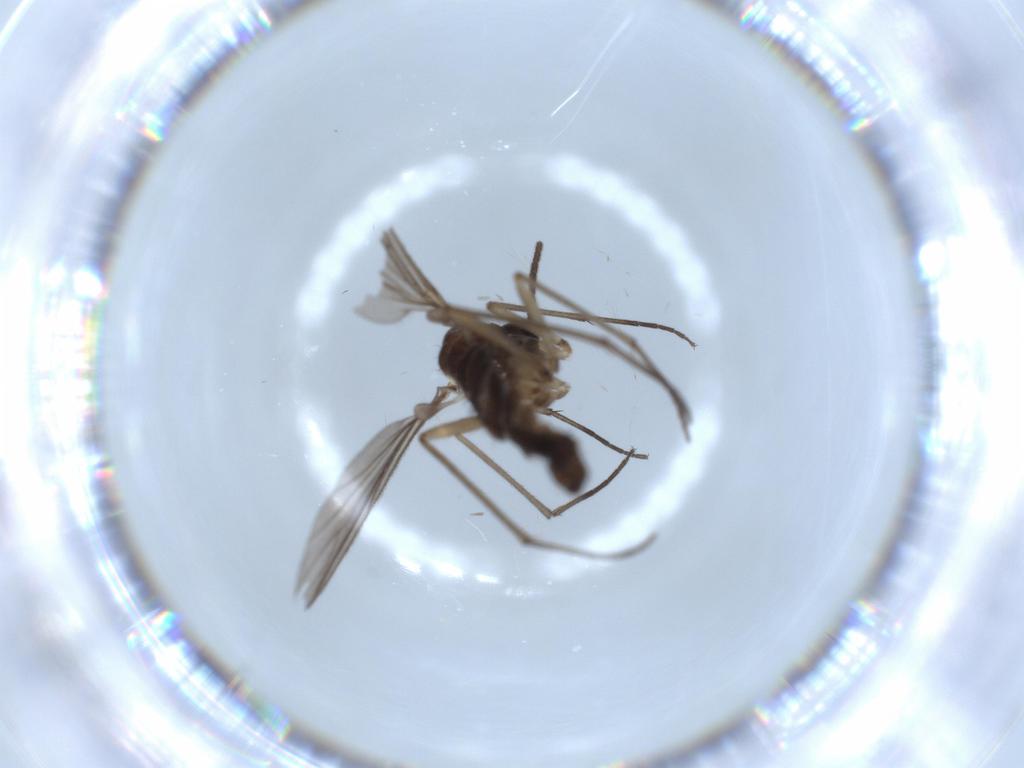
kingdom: Animalia
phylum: Arthropoda
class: Insecta
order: Diptera
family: Sciaridae
